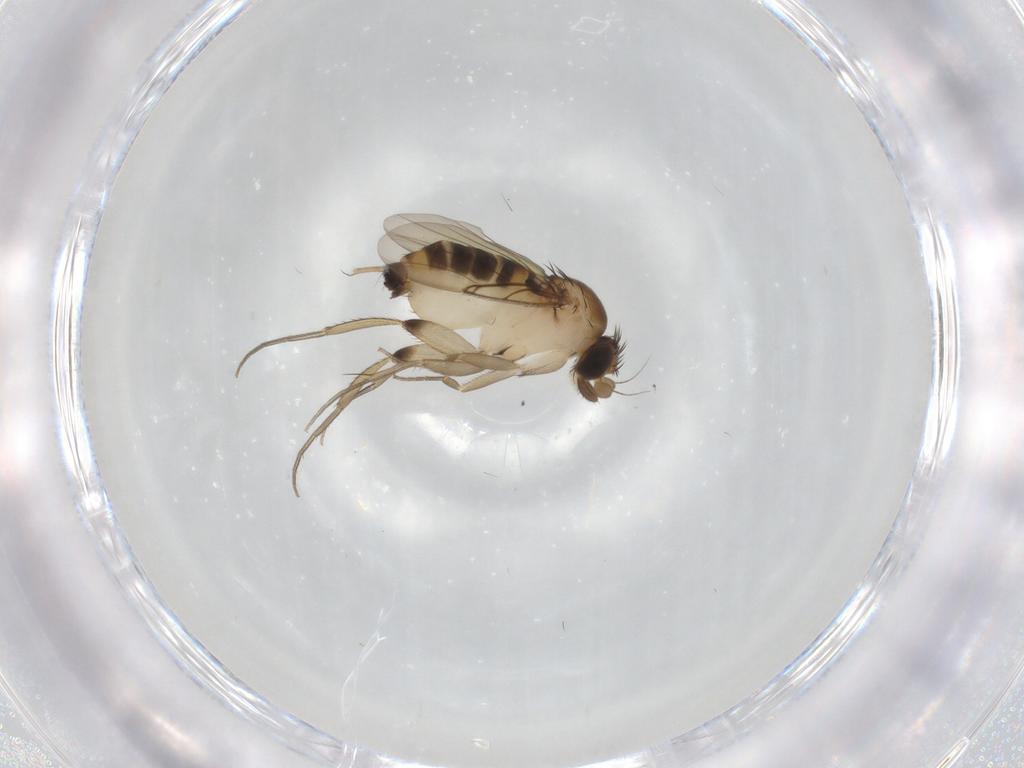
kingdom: Animalia
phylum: Arthropoda
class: Insecta
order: Diptera
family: Phoridae
